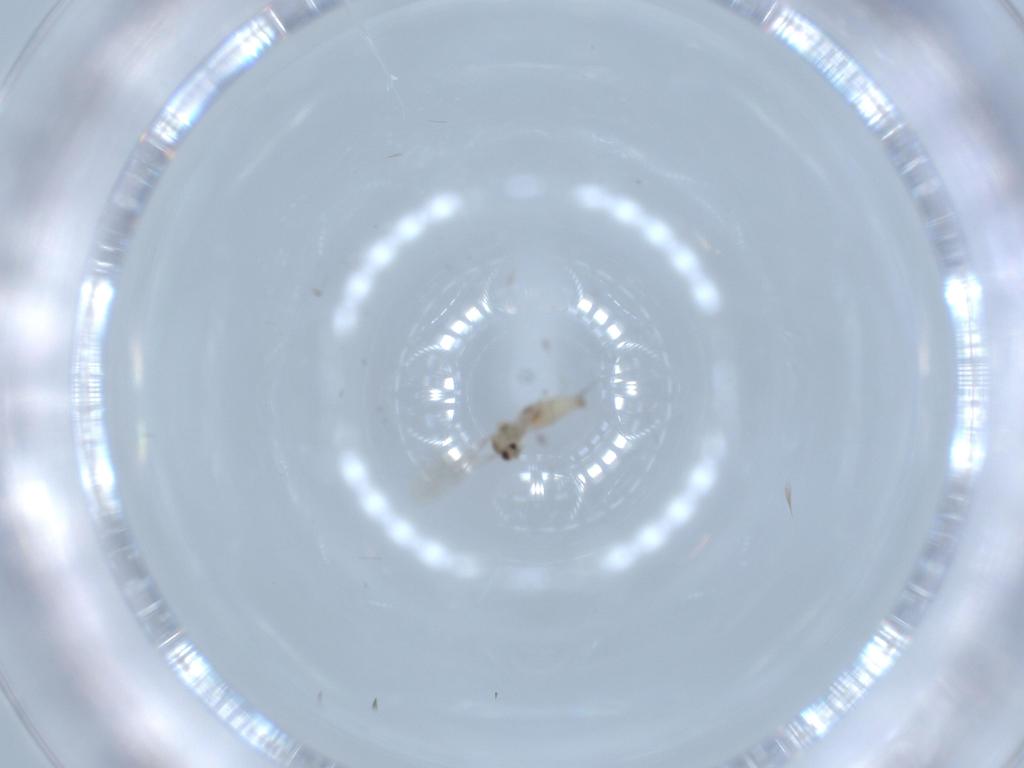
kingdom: Animalia
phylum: Arthropoda
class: Insecta
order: Diptera
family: Cecidomyiidae
